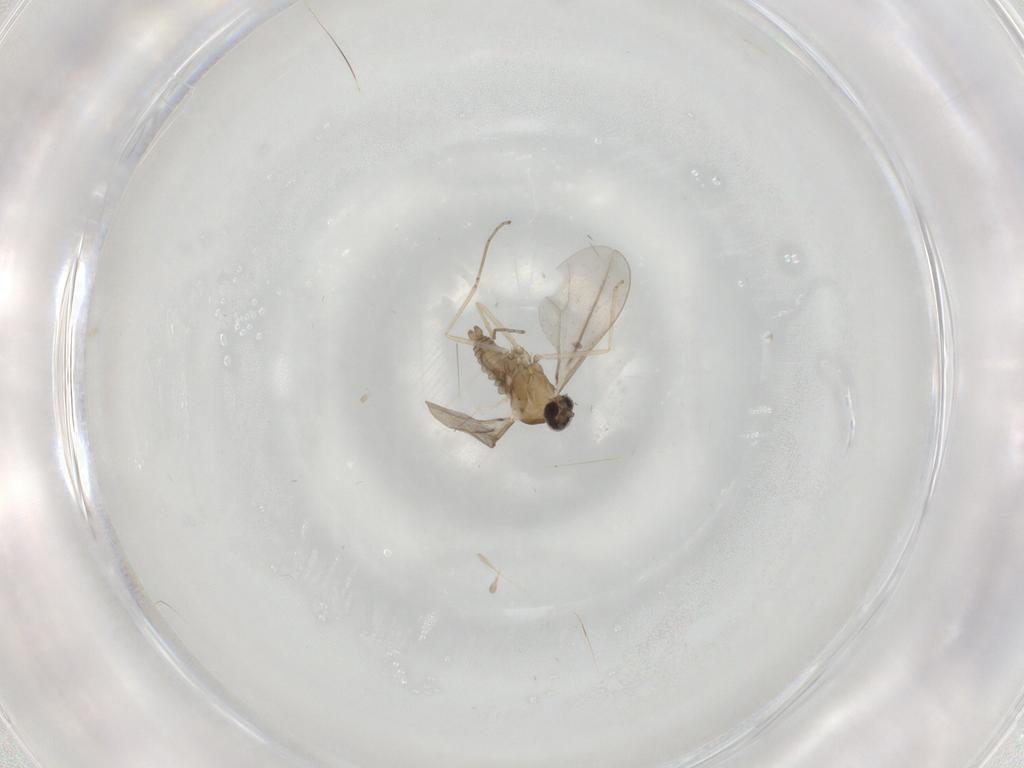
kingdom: Animalia
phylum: Arthropoda
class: Insecta
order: Diptera
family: Cecidomyiidae
